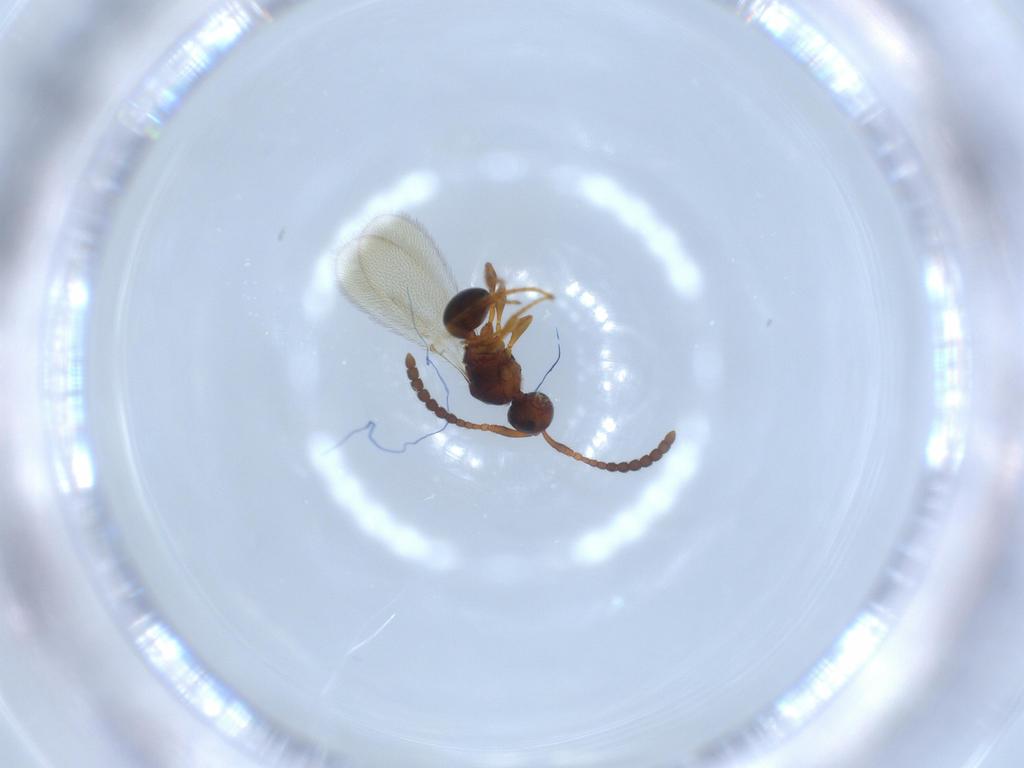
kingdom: Animalia
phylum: Arthropoda
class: Insecta
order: Hymenoptera
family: Diapriidae
